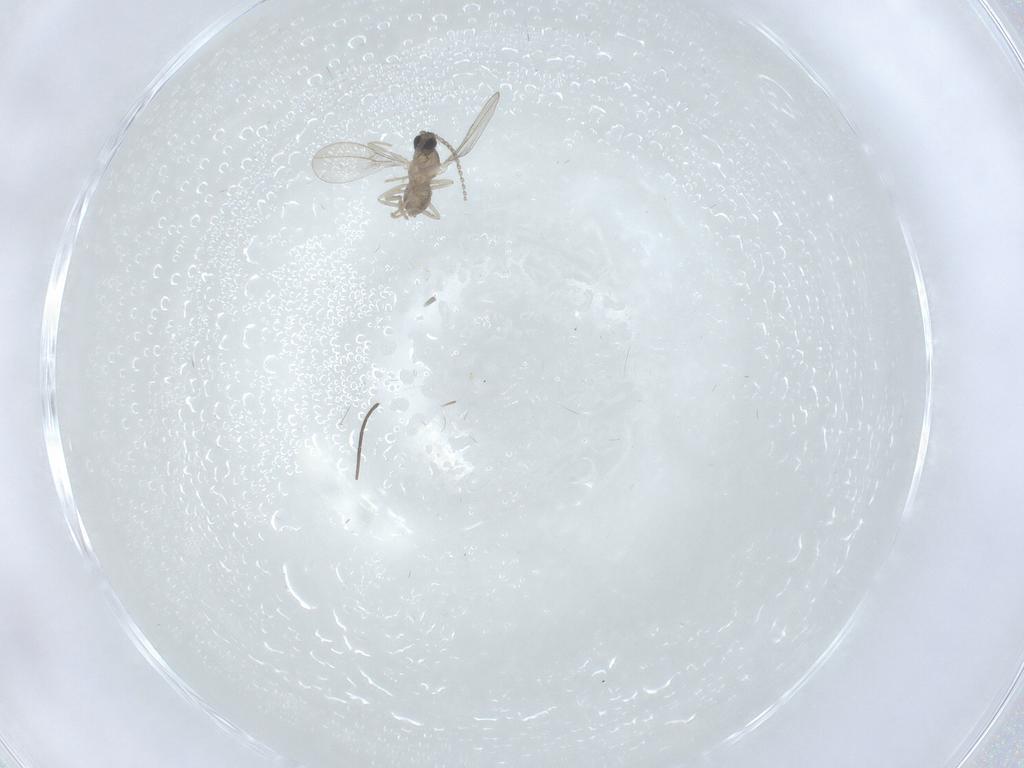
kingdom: Animalia
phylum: Arthropoda
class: Insecta
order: Diptera
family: Cecidomyiidae
